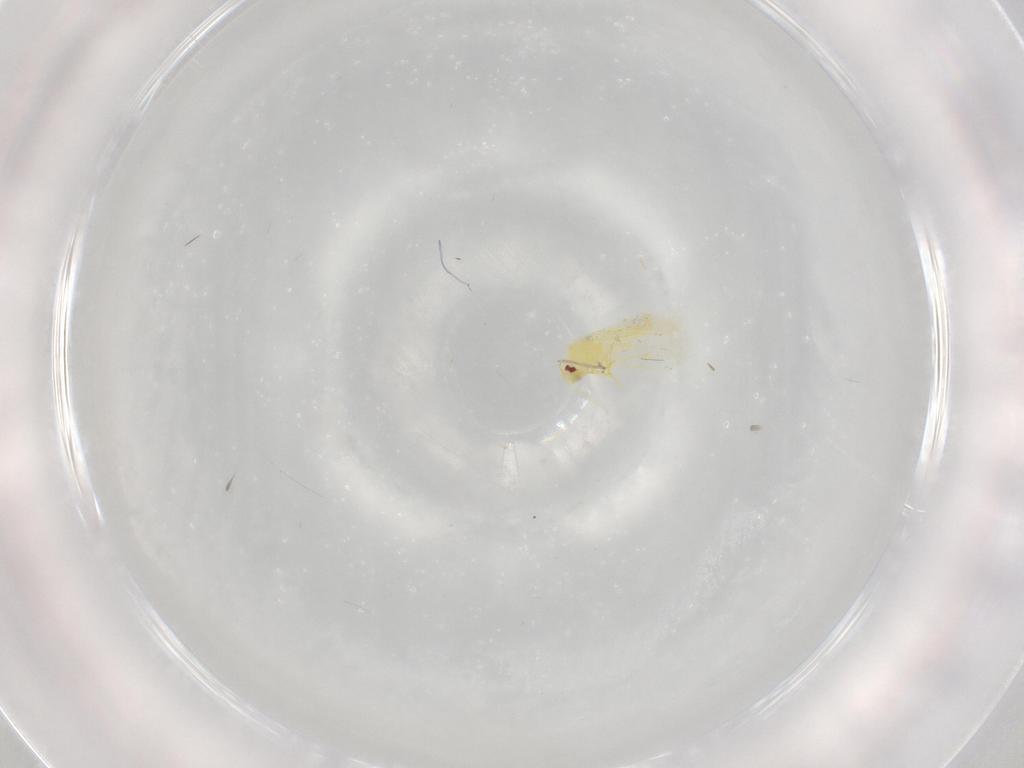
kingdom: Animalia
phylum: Arthropoda
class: Insecta
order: Hemiptera
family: Aleyrodidae
